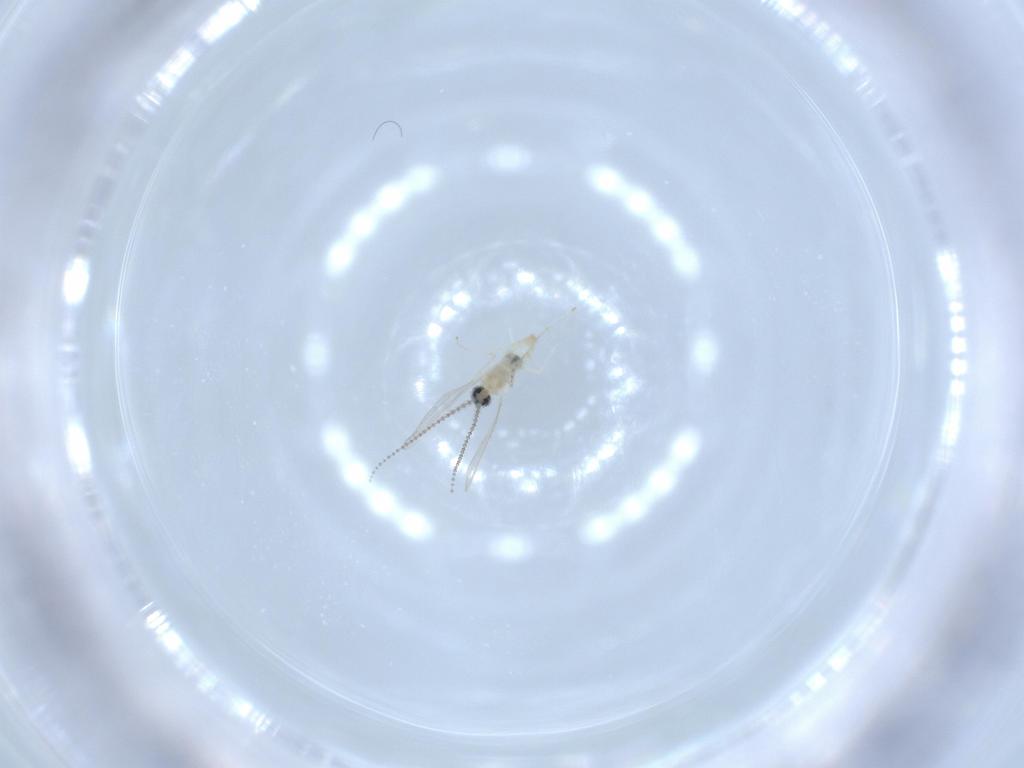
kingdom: Animalia
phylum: Arthropoda
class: Insecta
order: Diptera
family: Cecidomyiidae
